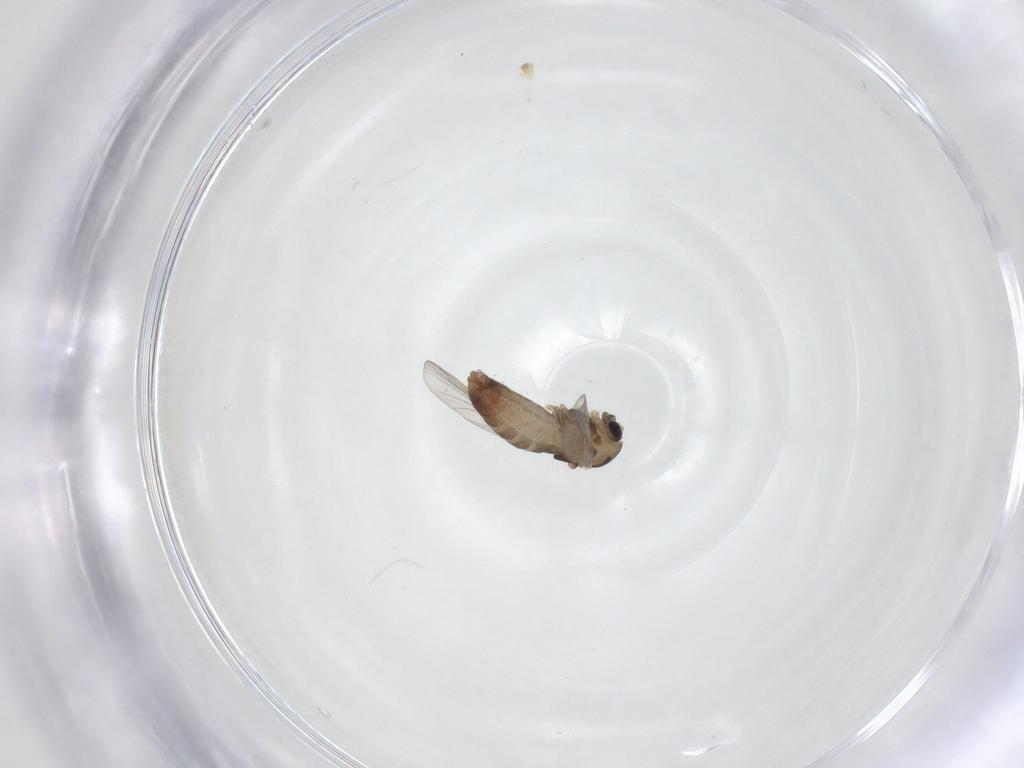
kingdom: Animalia
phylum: Arthropoda
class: Insecta
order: Diptera
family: Chironomidae
